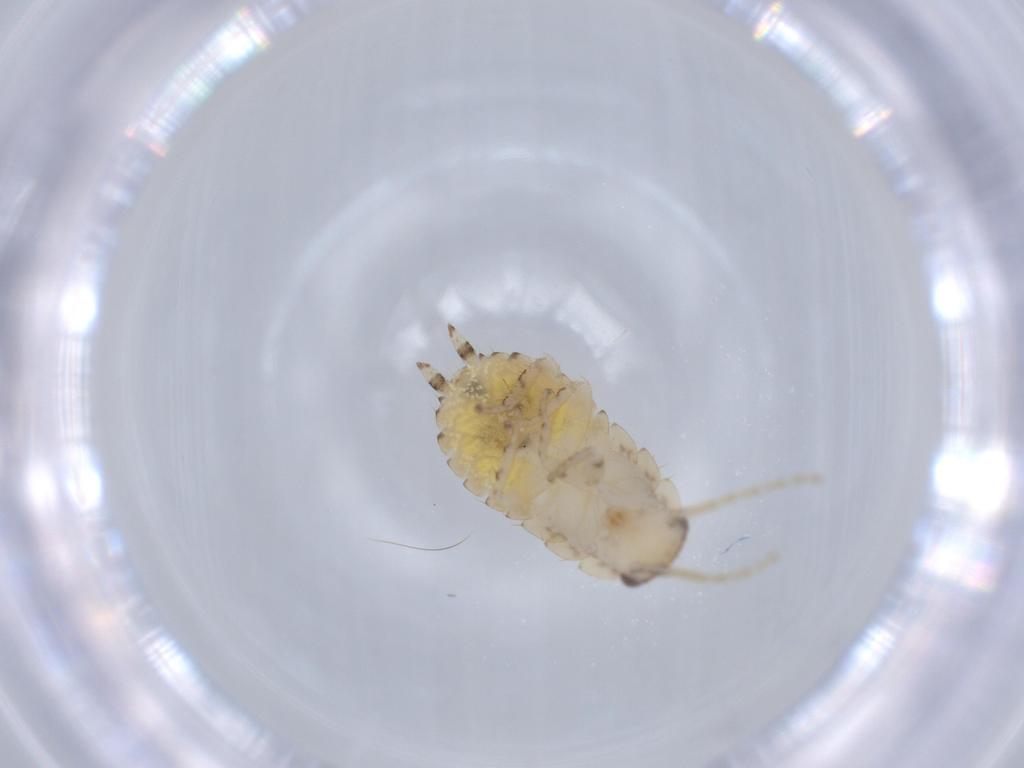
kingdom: Animalia
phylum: Arthropoda
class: Insecta
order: Blattodea
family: Ectobiidae
